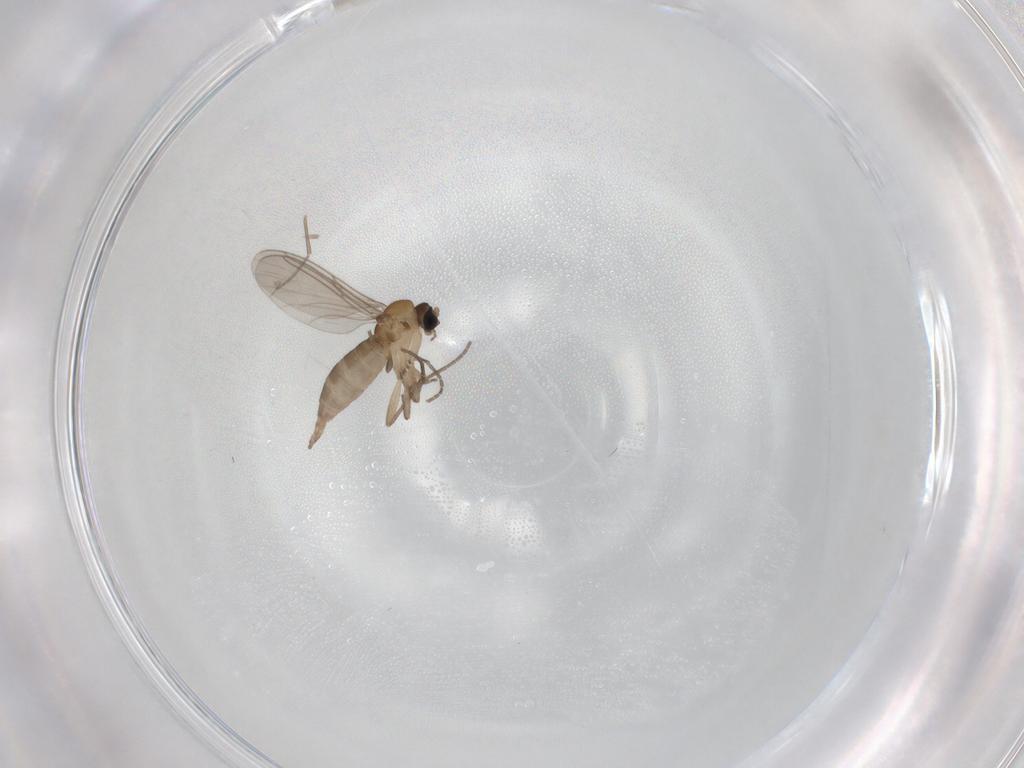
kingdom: Animalia
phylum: Arthropoda
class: Insecta
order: Diptera
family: Sciaridae
